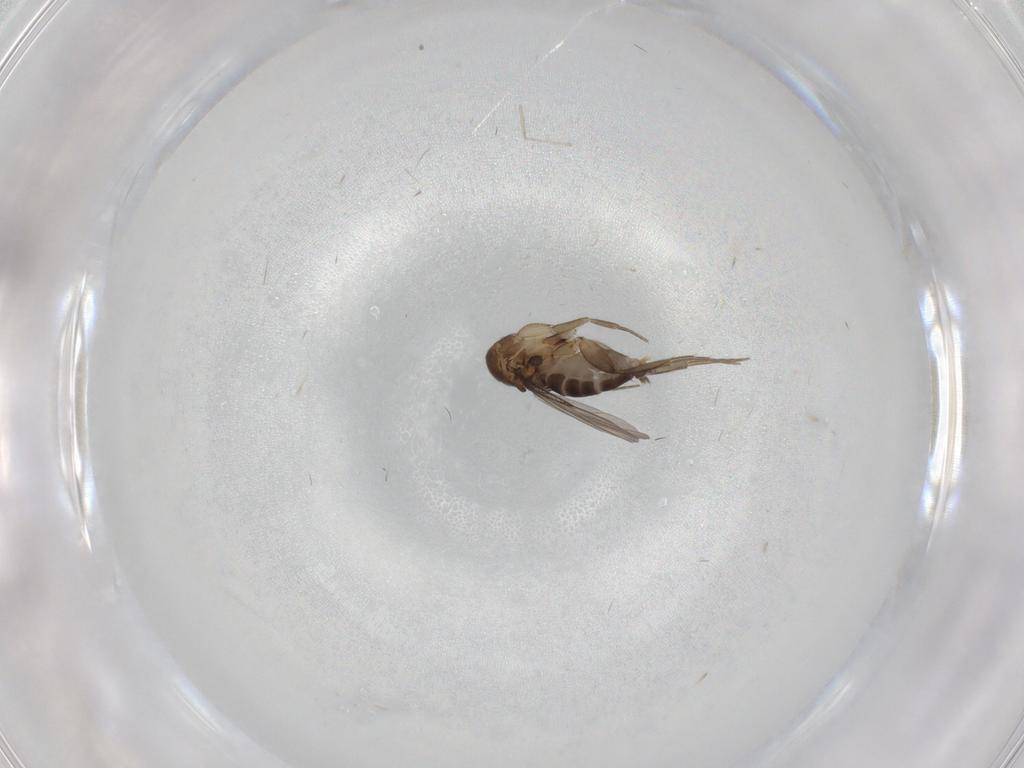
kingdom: Animalia
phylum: Arthropoda
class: Insecta
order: Diptera
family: Phoridae
